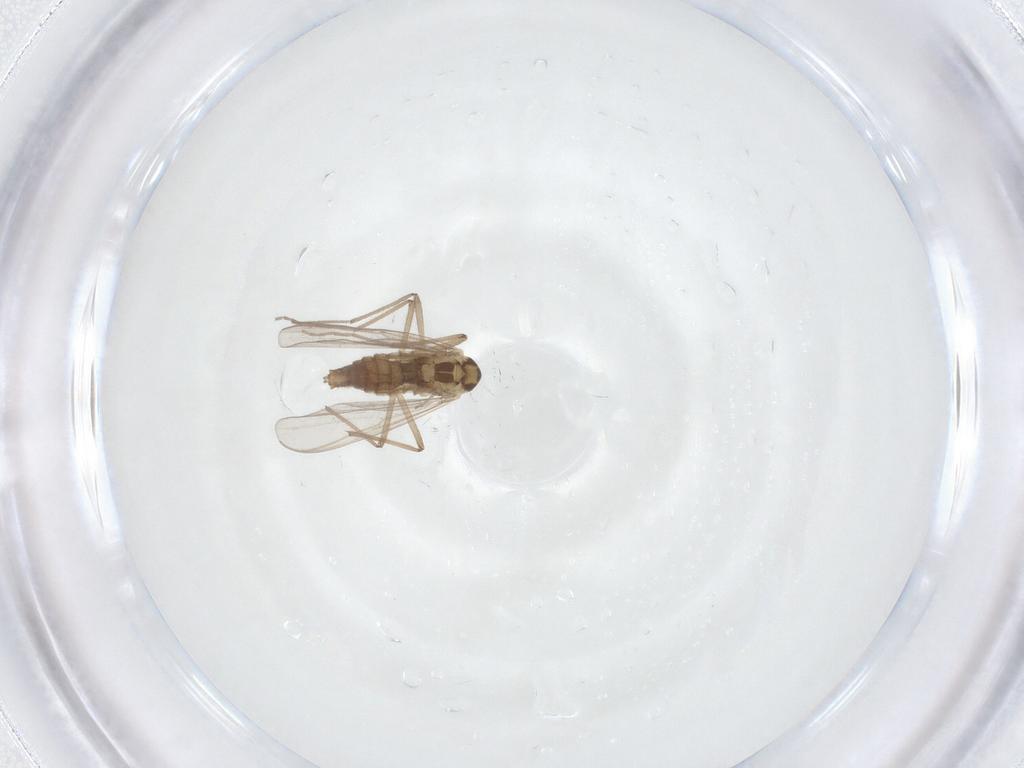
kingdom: Animalia
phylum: Arthropoda
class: Insecta
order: Diptera
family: Chironomidae
